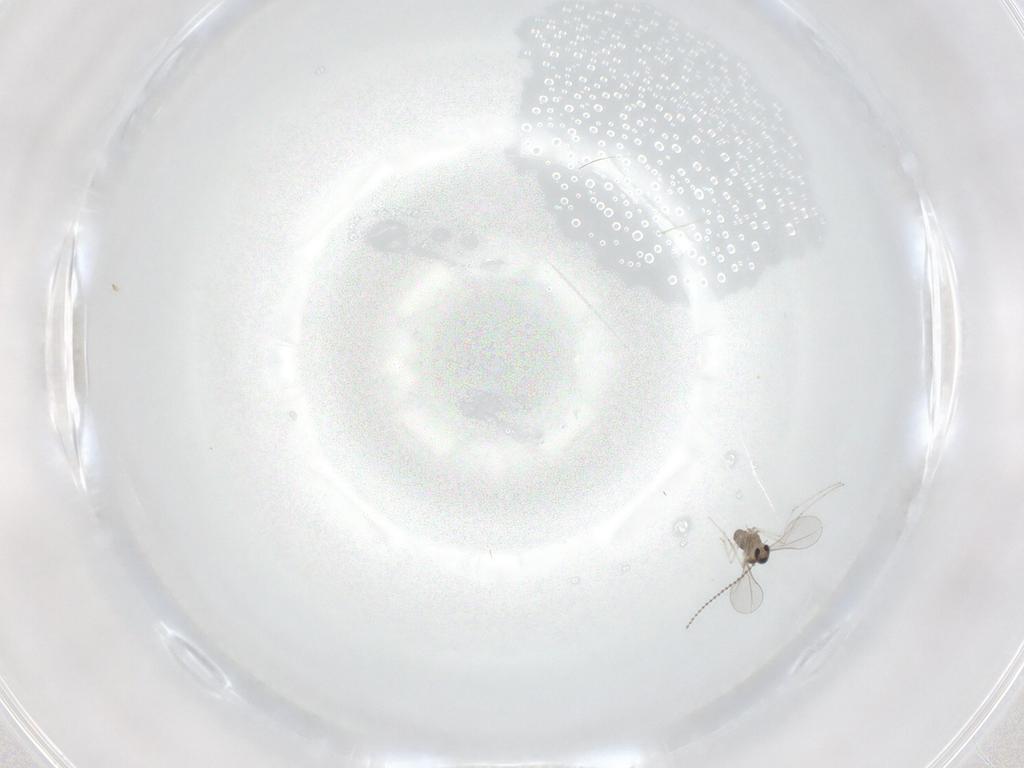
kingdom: Animalia
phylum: Arthropoda
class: Insecta
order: Diptera
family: Cecidomyiidae
